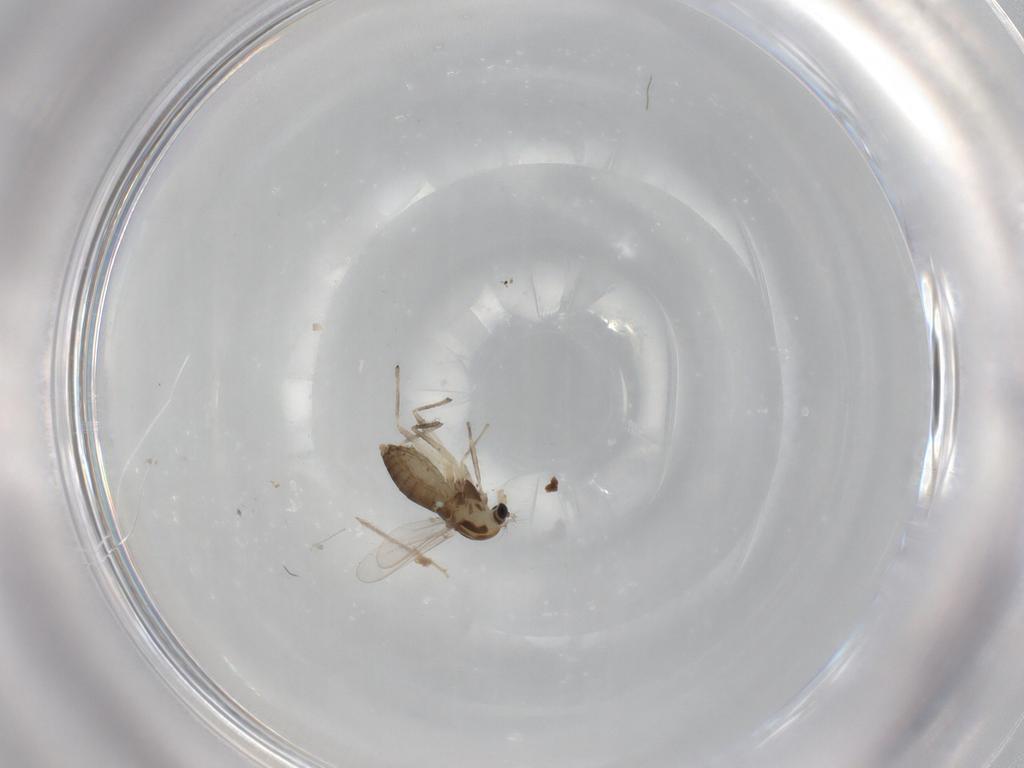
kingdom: Animalia
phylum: Arthropoda
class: Insecta
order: Diptera
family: Chironomidae
